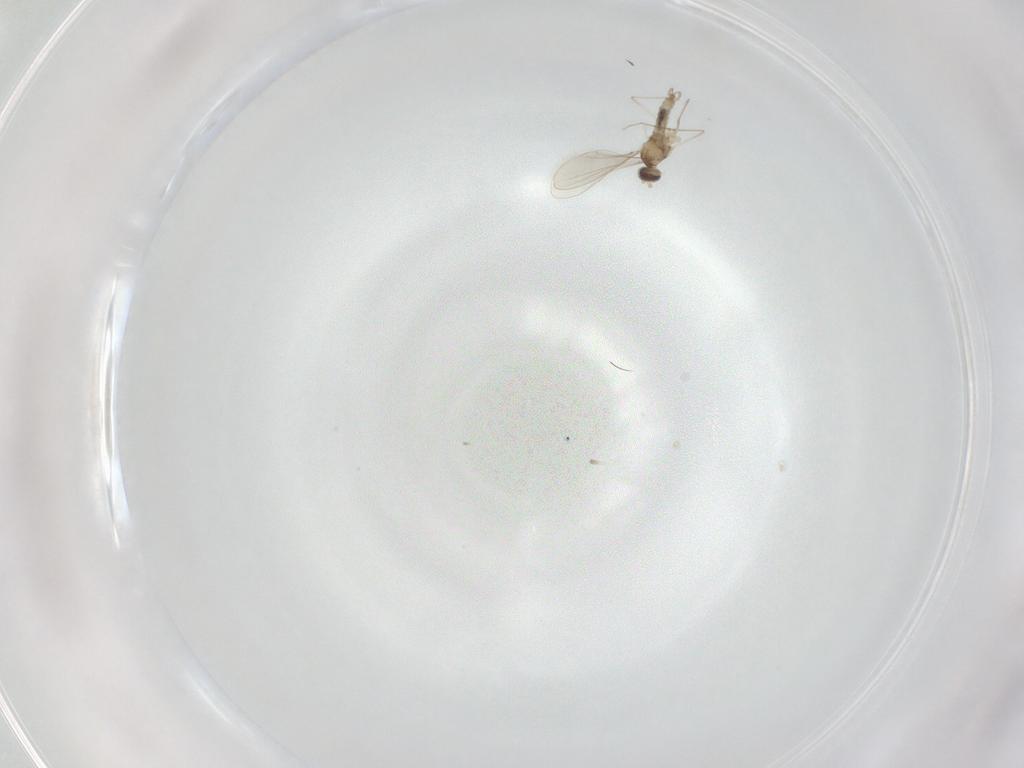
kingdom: Animalia
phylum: Arthropoda
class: Insecta
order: Diptera
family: Cecidomyiidae
